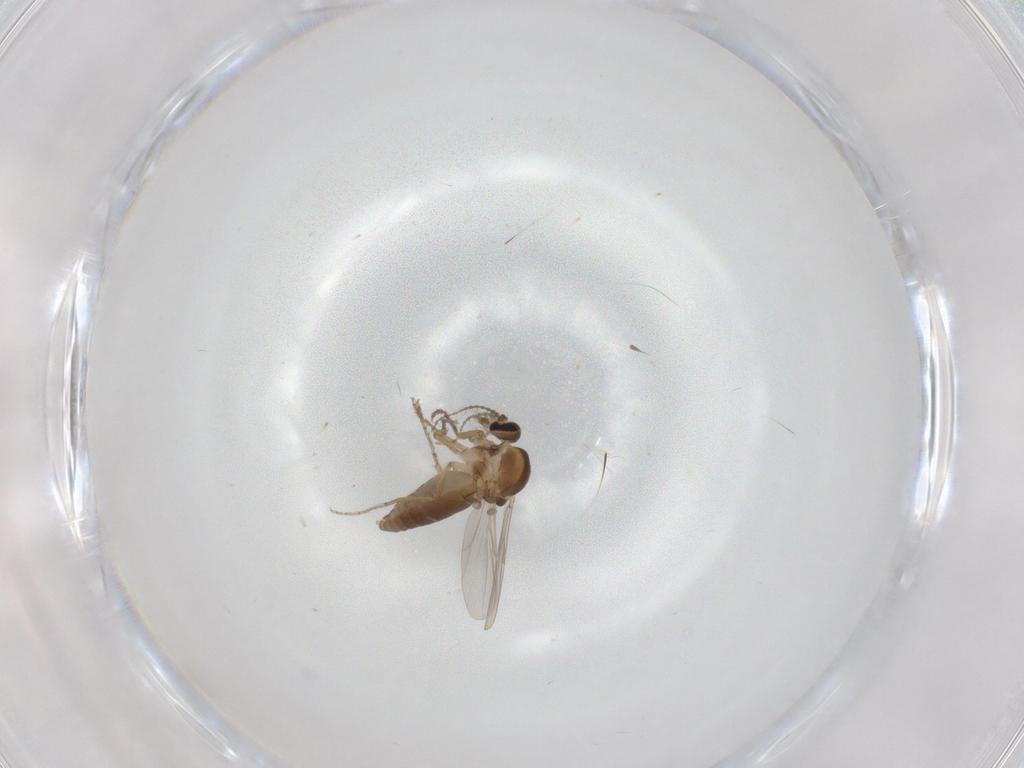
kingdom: Animalia
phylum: Arthropoda
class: Insecta
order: Diptera
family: Ceratopogonidae
